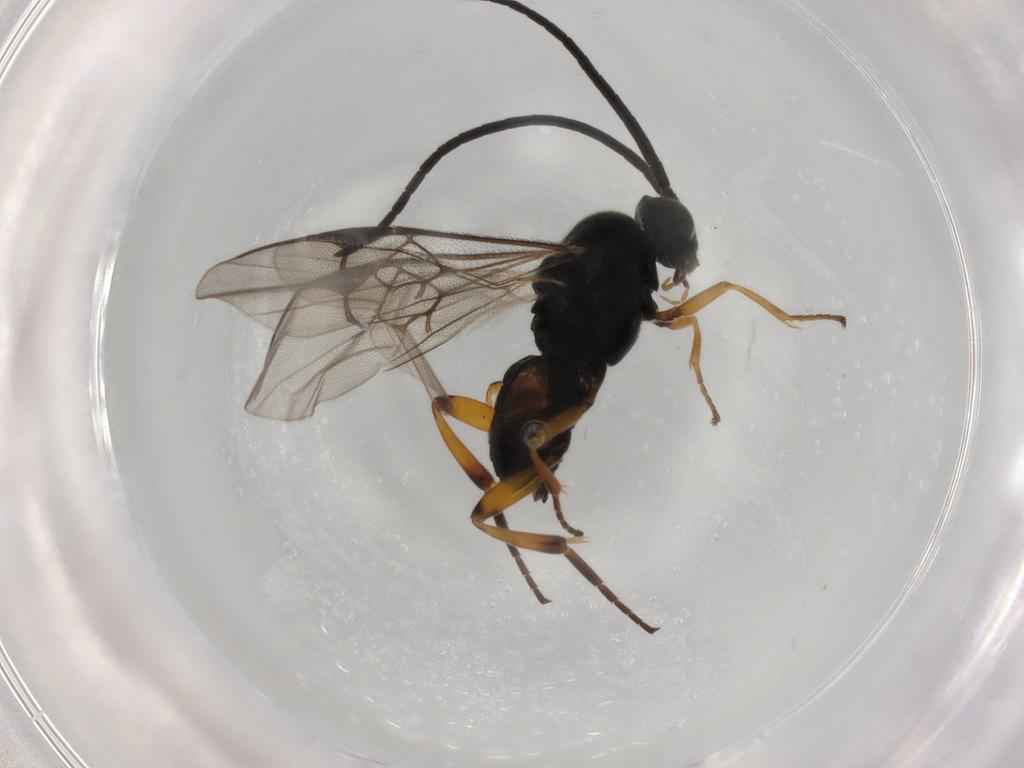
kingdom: Animalia
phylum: Arthropoda
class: Insecta
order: Hymenoptera
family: Braconidae
